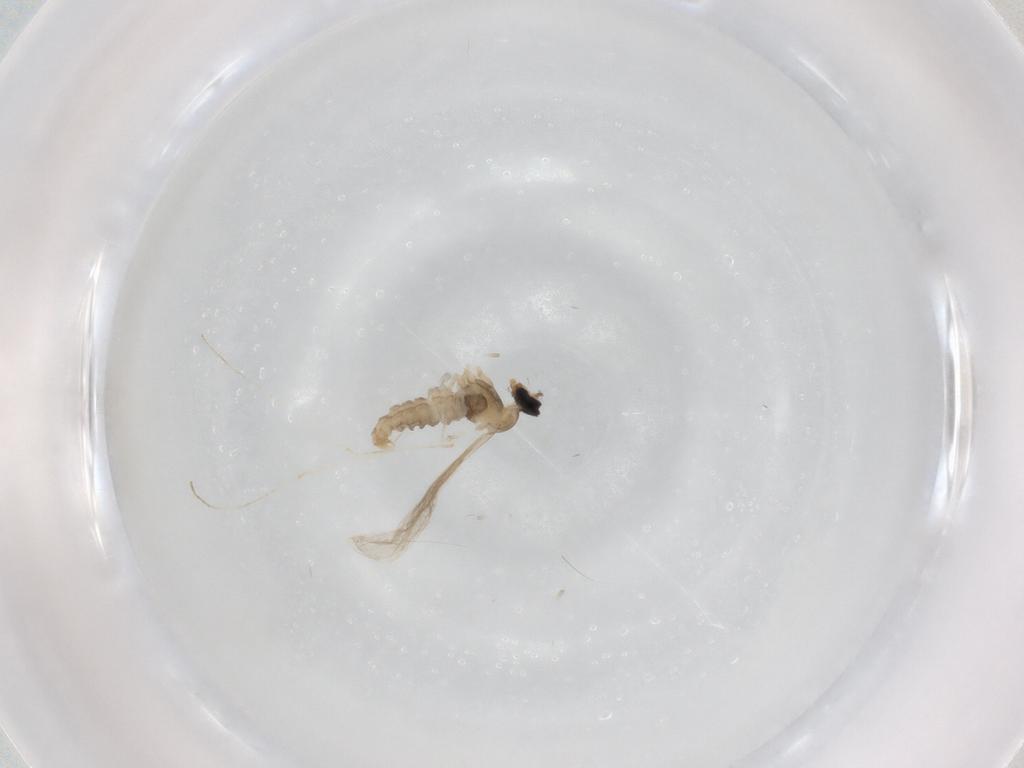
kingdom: Animalia
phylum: Arthropoda
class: Insecta
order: Diptera
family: Cecidomyiidae
